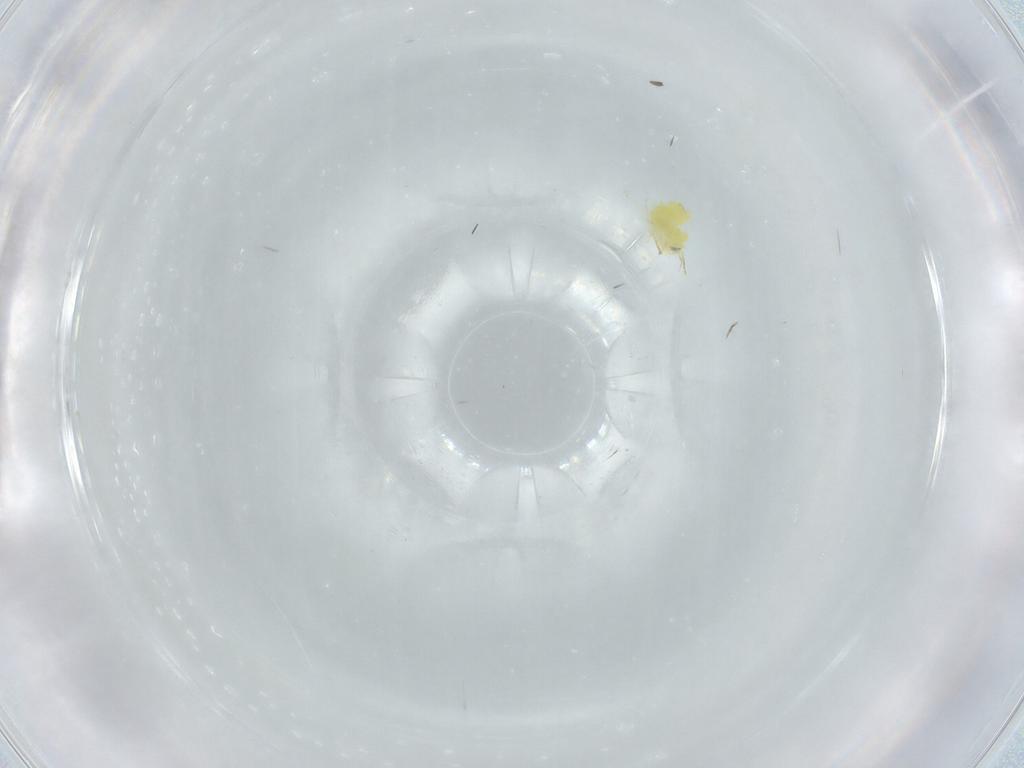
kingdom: Animalia
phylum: Arthropoda
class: Insecta
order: Hemiptera
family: Aleyrodidae
